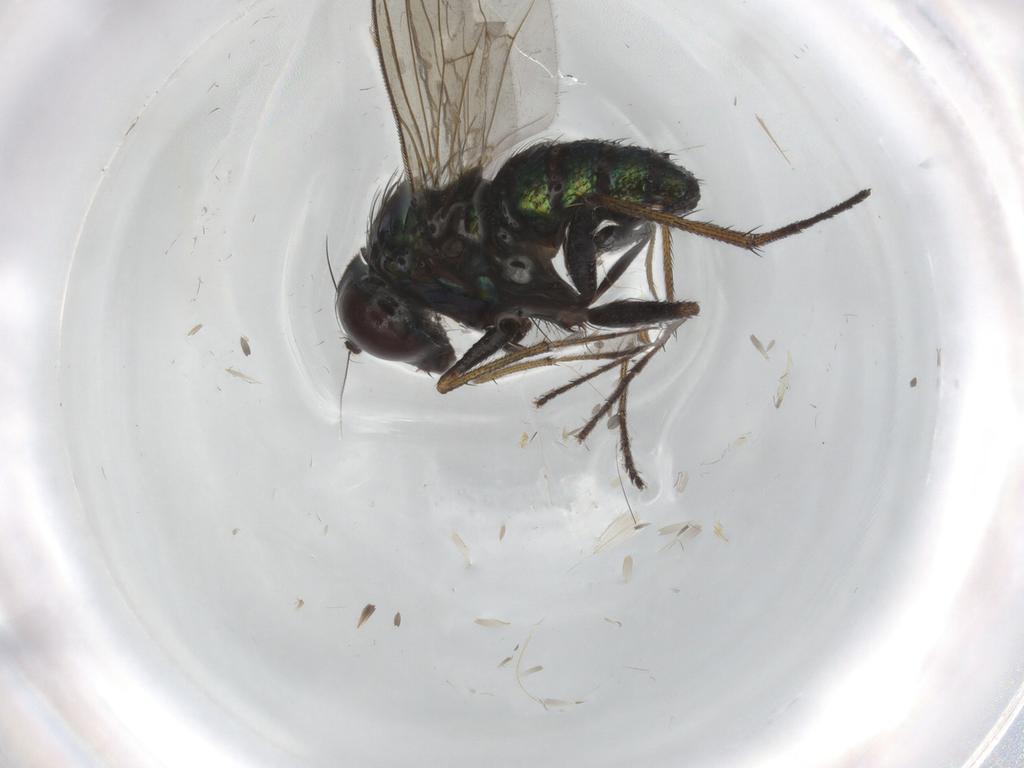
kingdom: Animalia
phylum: Arthropoda
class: Insecta
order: Diptera
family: Dolichopodidae
